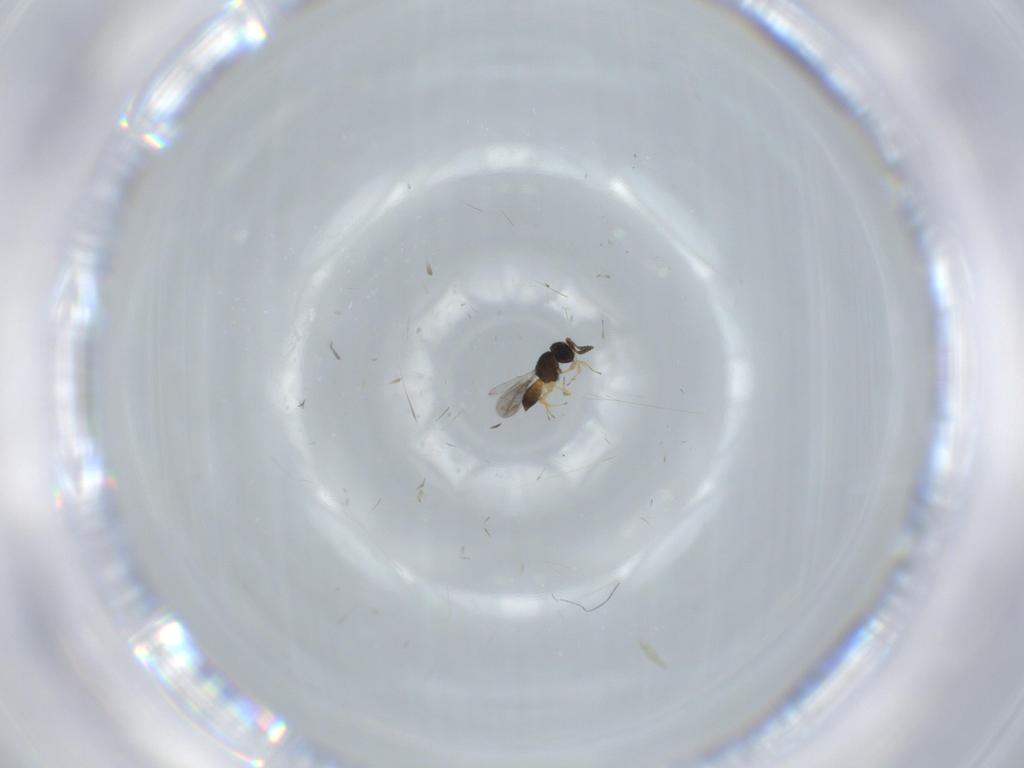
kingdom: Animalia
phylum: Arthropoda
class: Insecta
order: Hymenoptera
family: Scelionidae
